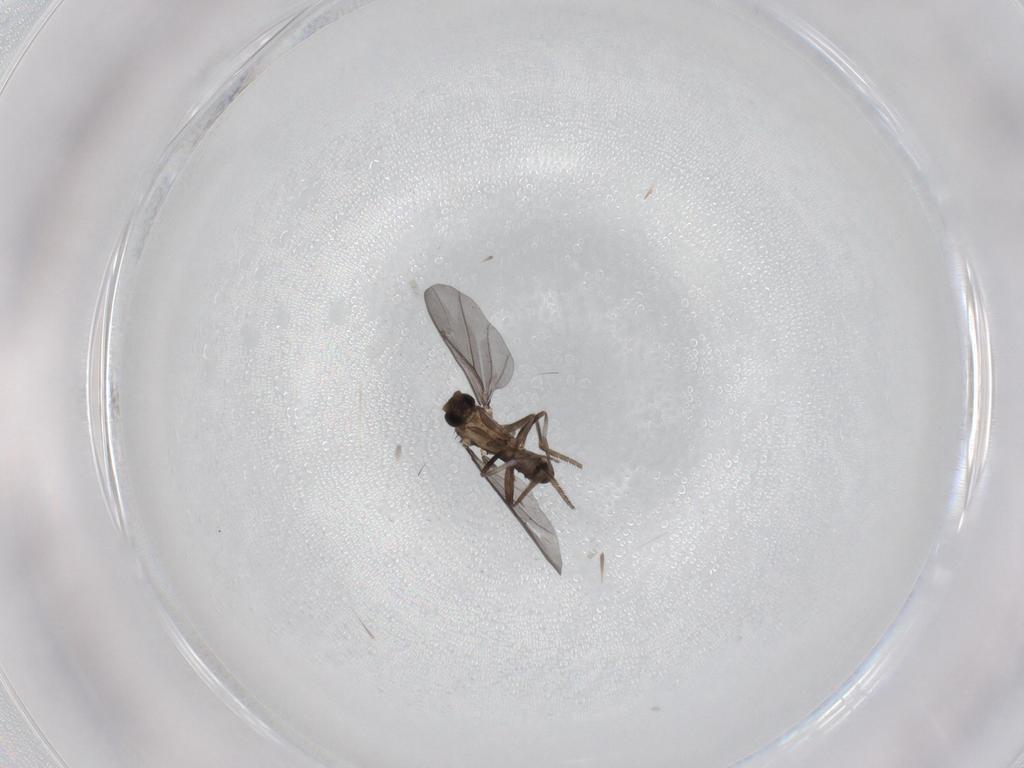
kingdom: Animalia
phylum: Arthropoda
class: Insecta
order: Diptera
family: Phoridae
